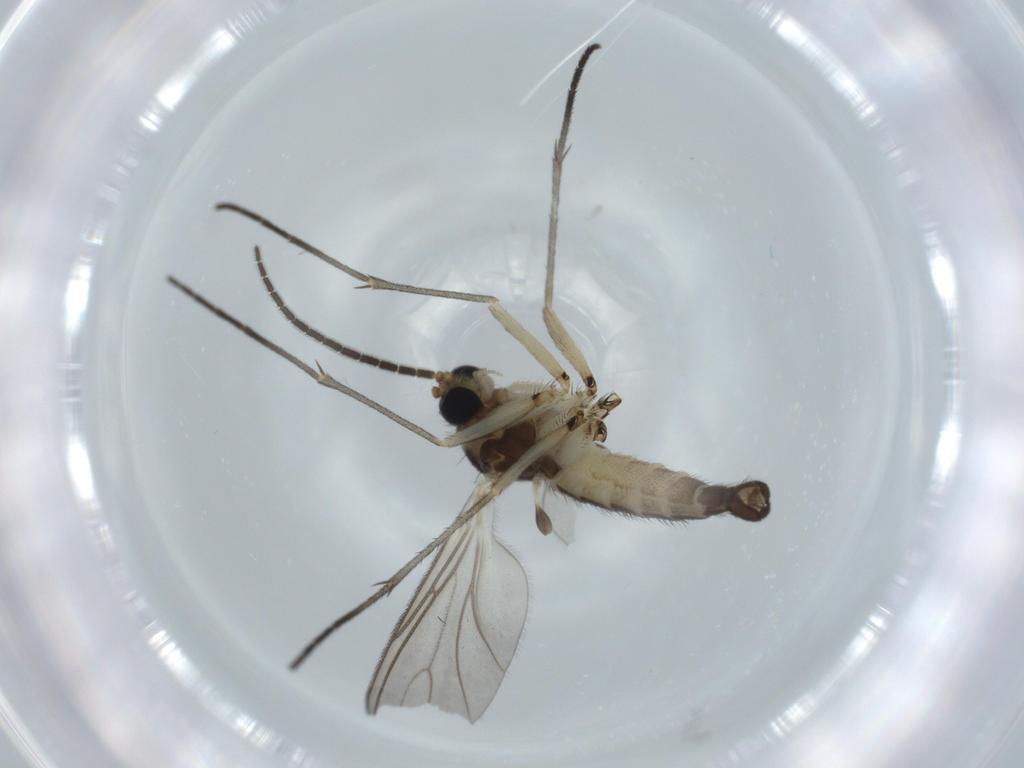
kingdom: Animalia
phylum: Arthropoda
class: Insecta
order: Diptera
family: Sciaridae
